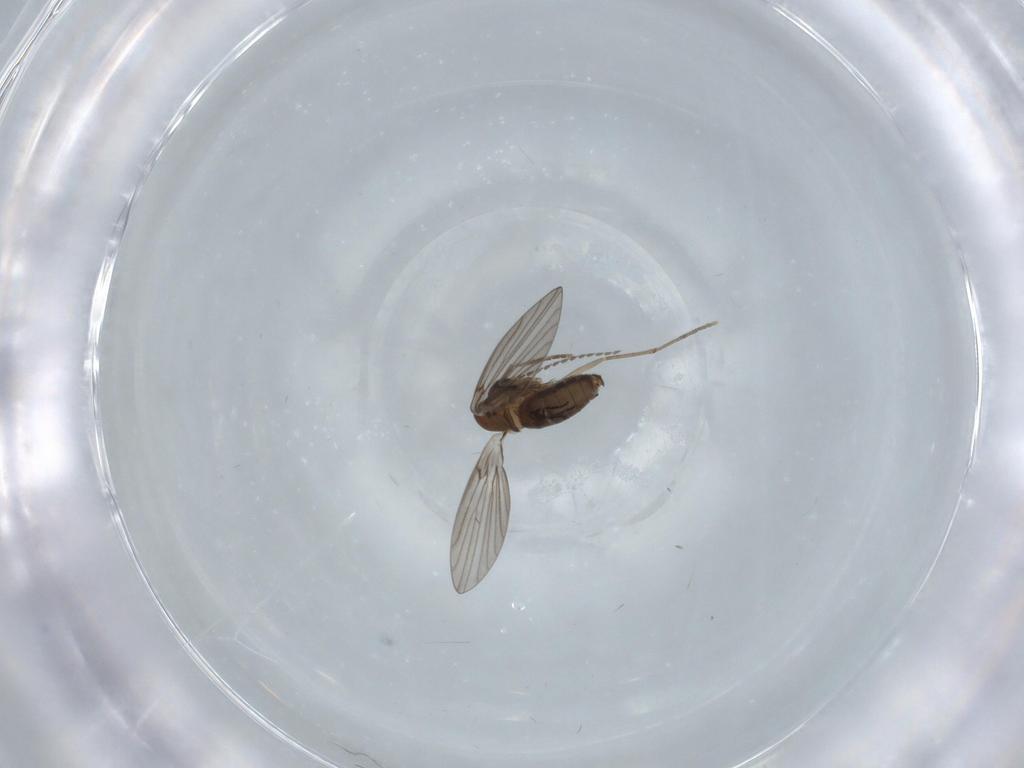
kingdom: Animalia
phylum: Arthropoda
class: Insecta
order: Diptera
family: Psychodidae
